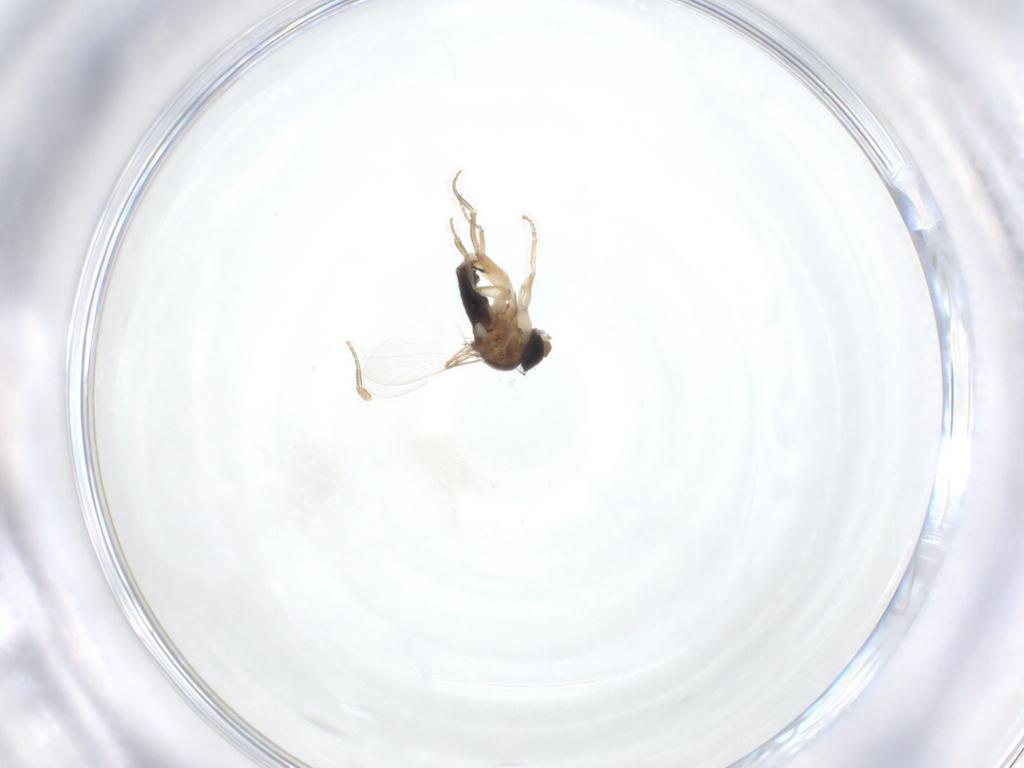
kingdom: Animalia
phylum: Arthropoda
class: Insecta
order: Diptera
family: Phoridae
